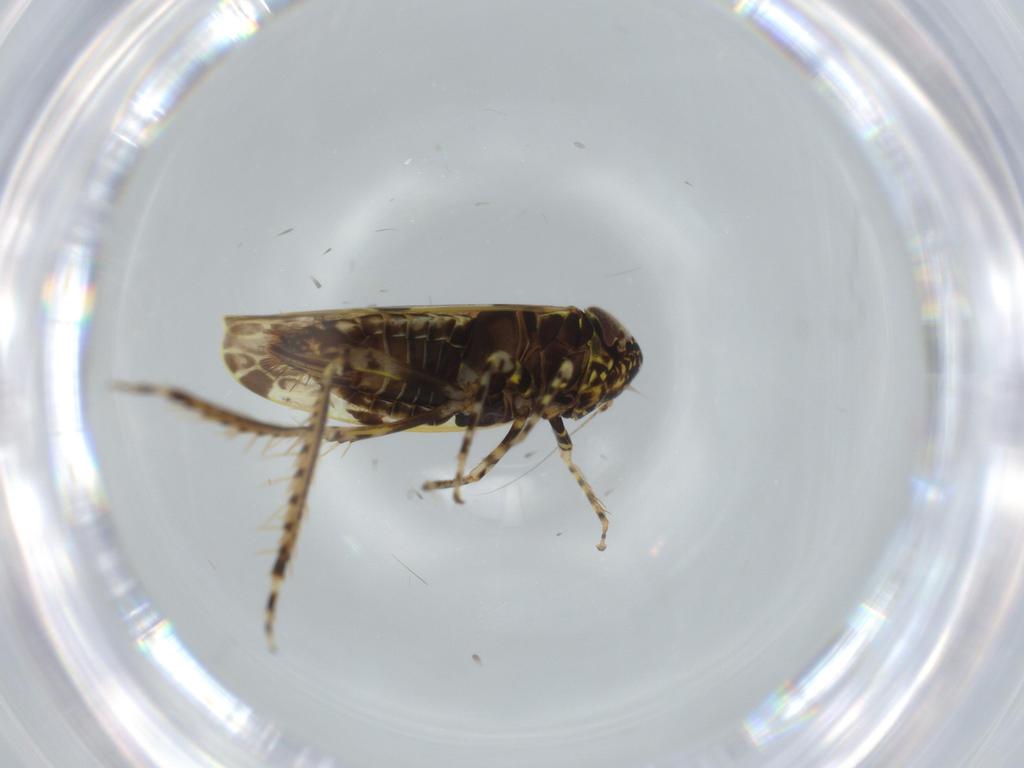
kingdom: Animalia
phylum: Arthropoda
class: Insecta
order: Hemiptera
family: Cicadellidae
